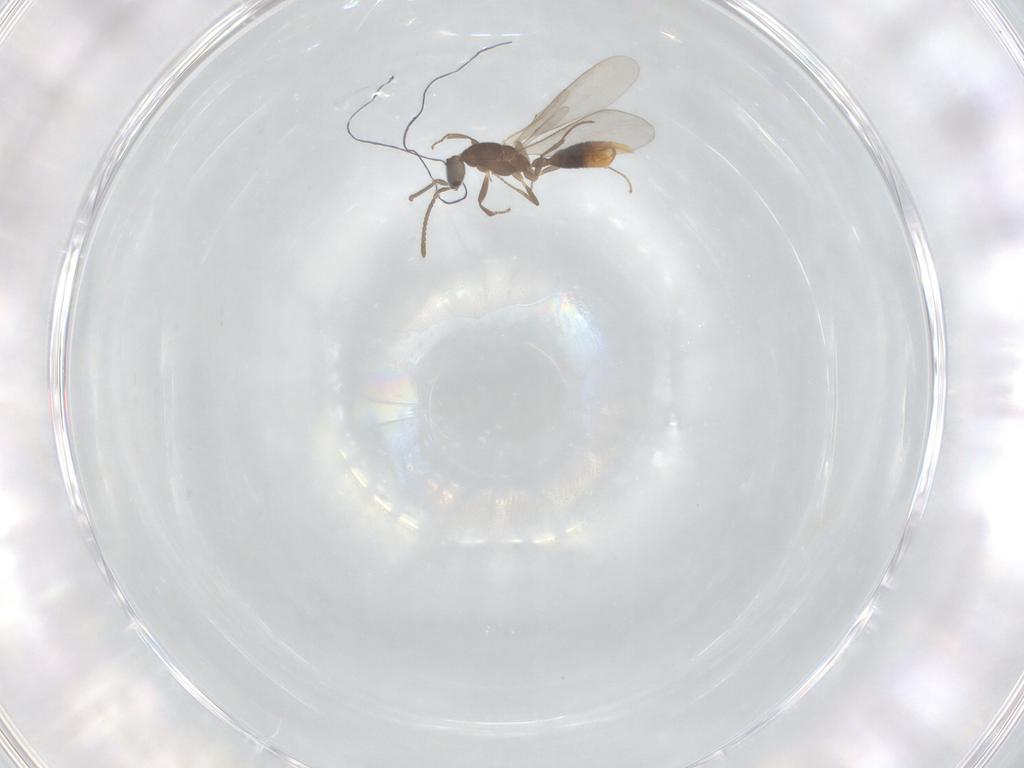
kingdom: Animalia
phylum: Arthropoda
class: Insecta
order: Hymenoptera
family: Formicidae
